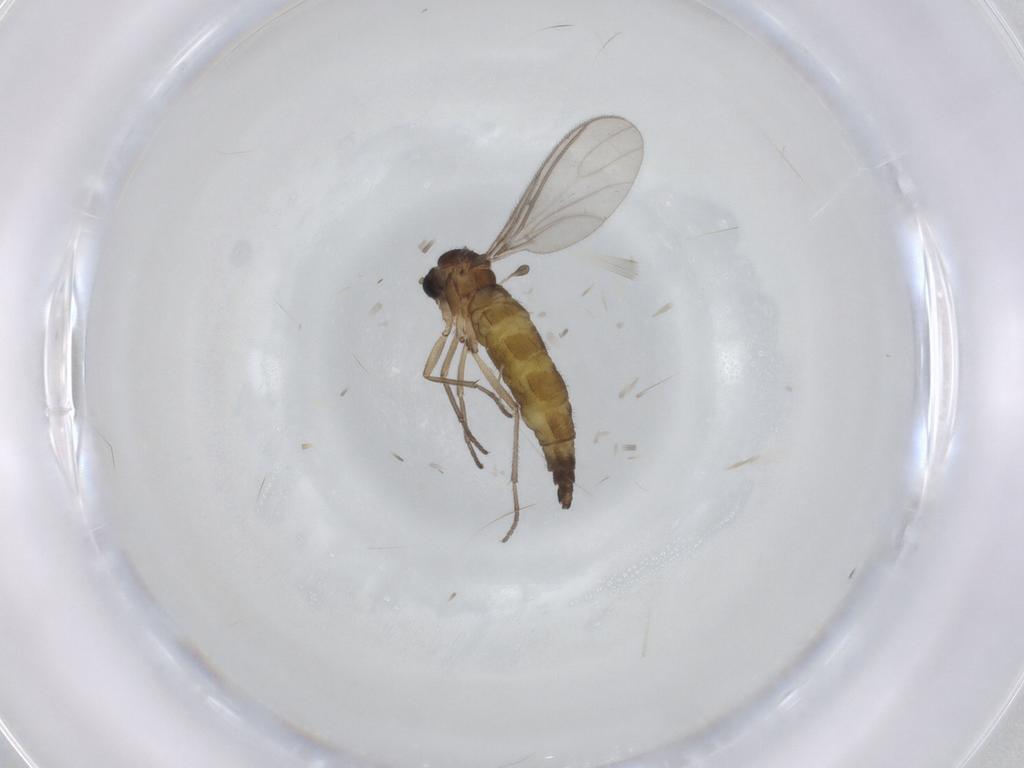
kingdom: Animalia
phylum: Arthropoda
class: Insecta
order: Diptera
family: Sciaridae
